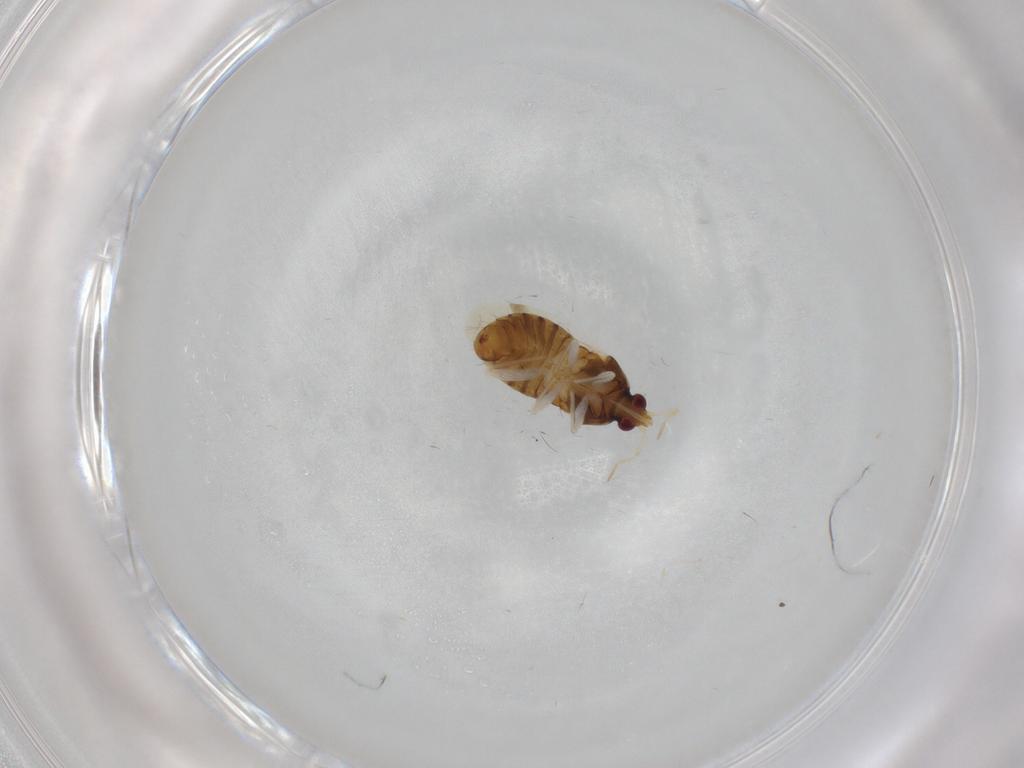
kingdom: Animalia
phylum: Arthropoda
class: Insecta
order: Hemiptera
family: Anthocoridae
